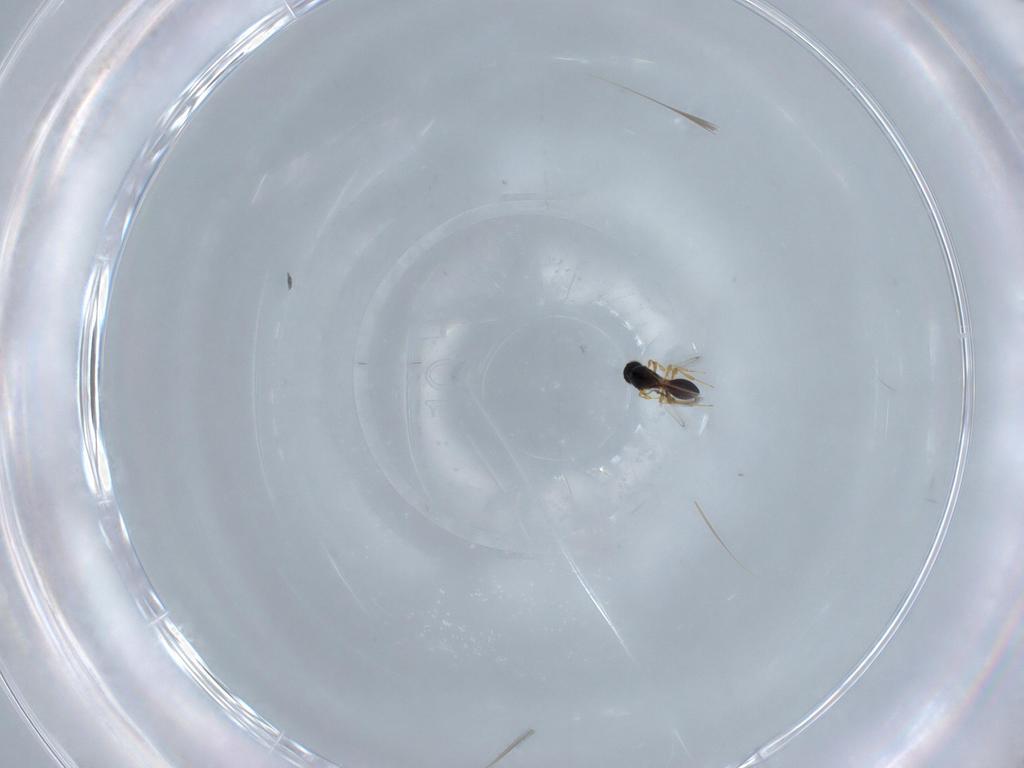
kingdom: Animalia
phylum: Arthropoda
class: Insecta
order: Hymenoptera
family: Platygastridae
